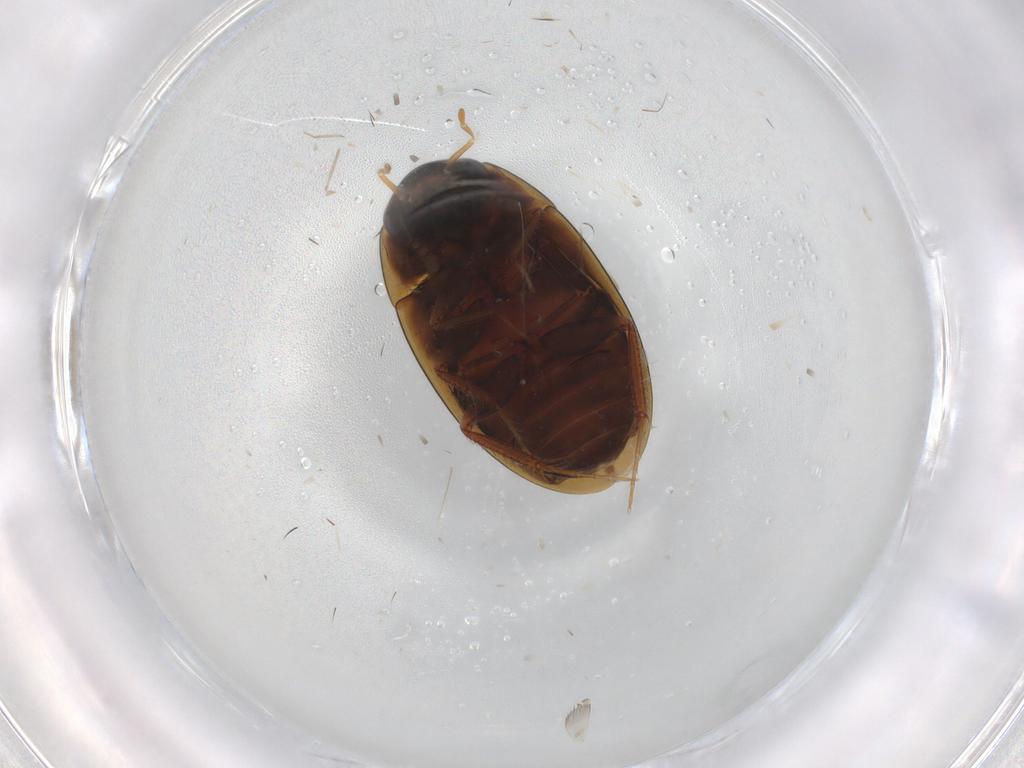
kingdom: Animalia
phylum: Arthropoda
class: Insecta
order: Coleoptera
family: Hydrophilidae
